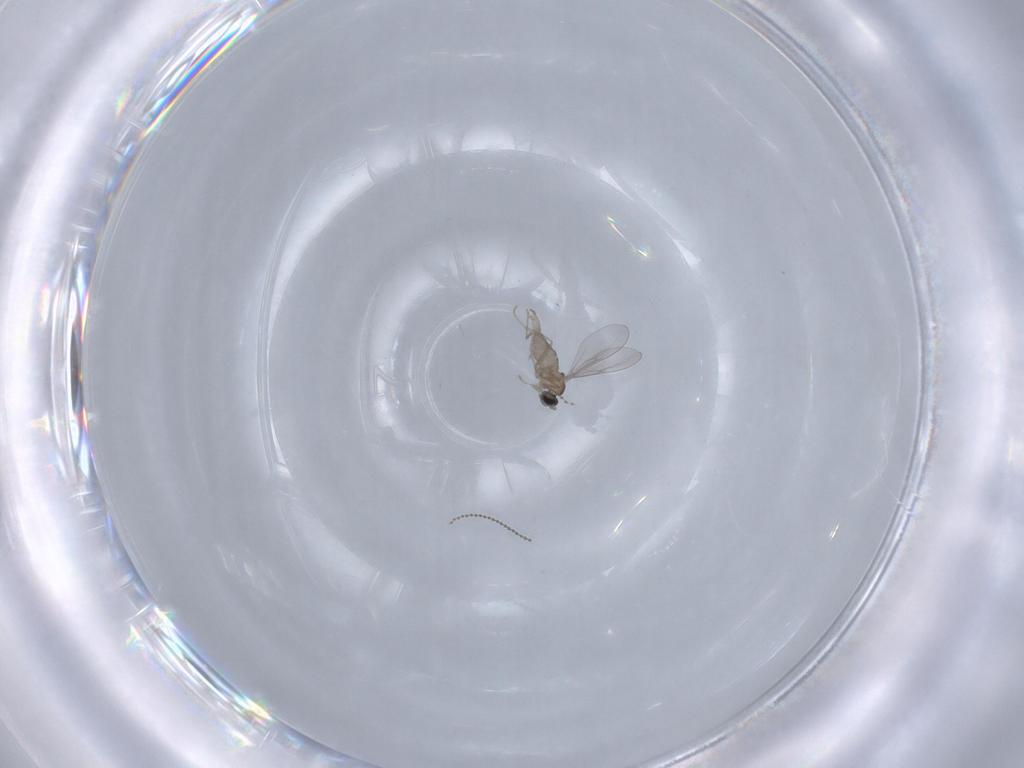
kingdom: Animalia
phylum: Arthropoda
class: Insecta
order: Diptera
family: Cecidomyiidae
